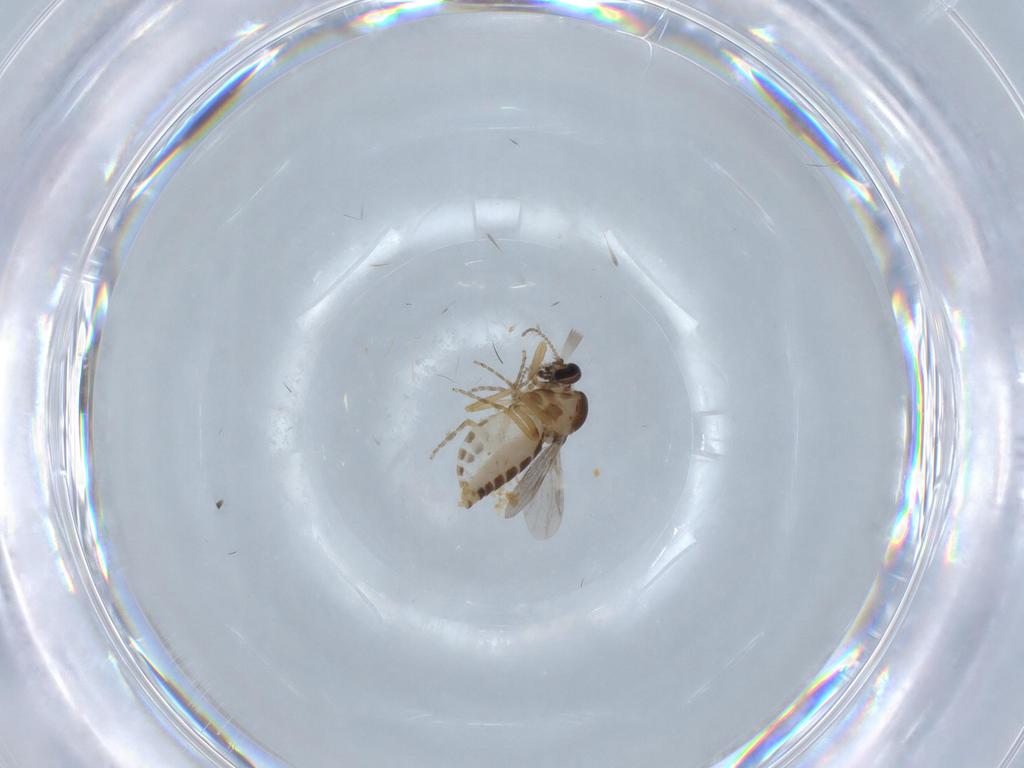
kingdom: Animalia
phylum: Arthropoda
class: Insecta
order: Diptera
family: Ceratopogonidae
